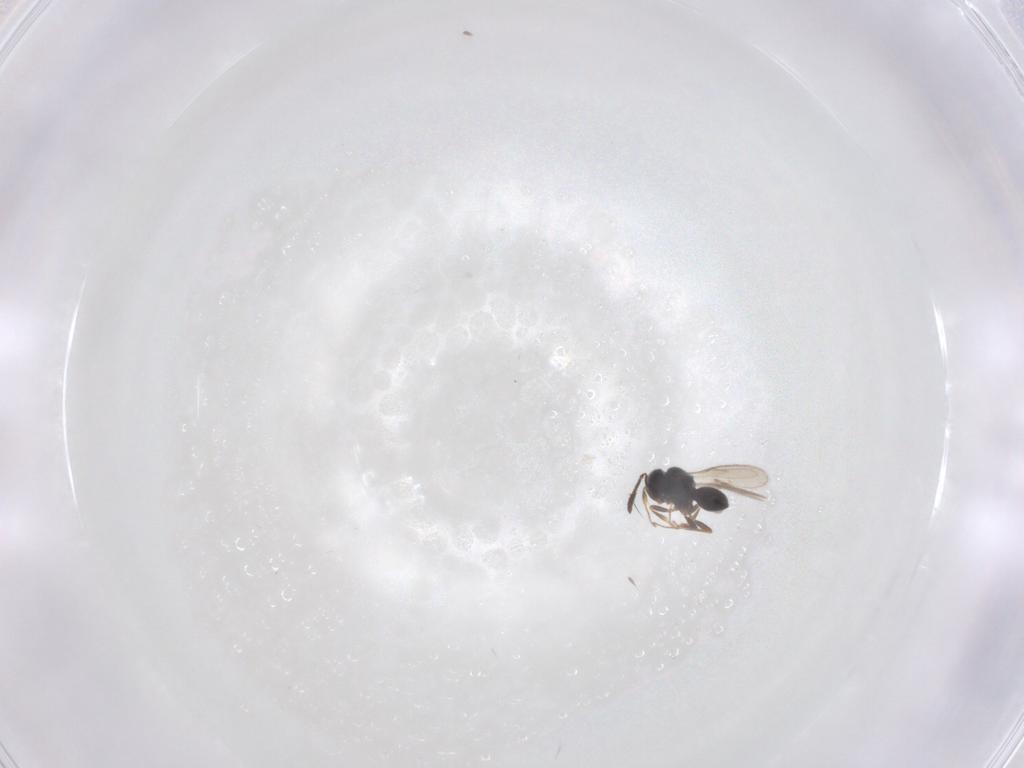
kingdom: Animalia
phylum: Arthropoda
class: Insecta
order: Hymenoptera
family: Scelionidae
